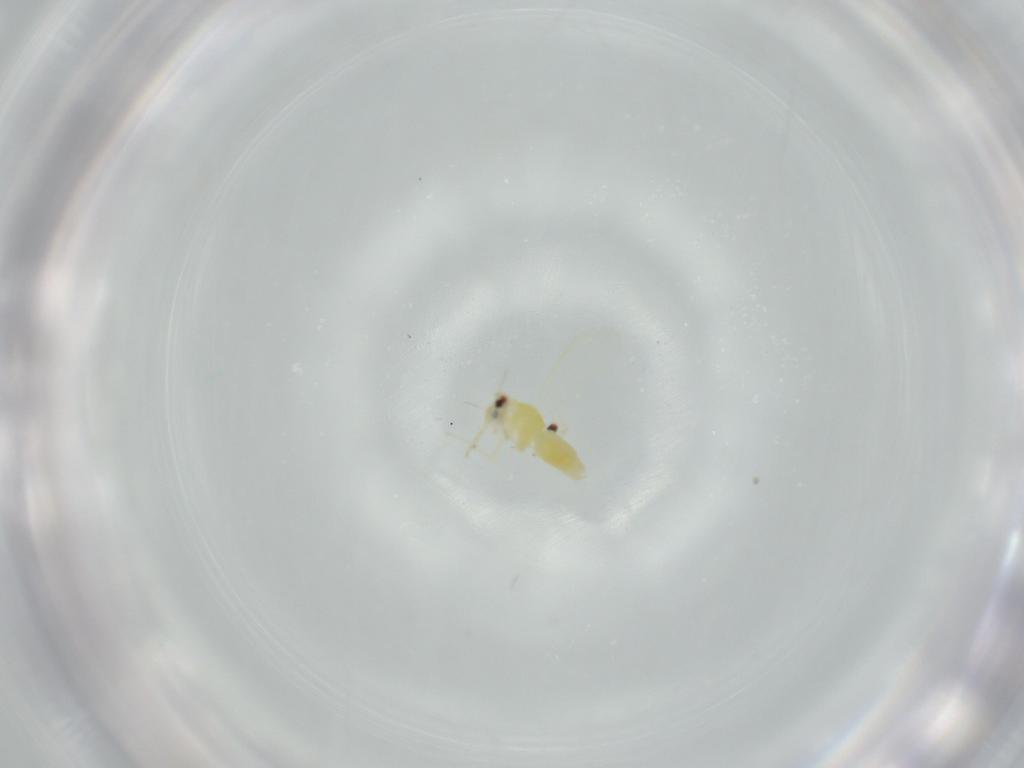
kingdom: Animalia
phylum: Arthropoda
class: Insecta
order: Hemiptera
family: Aleyrodidae
